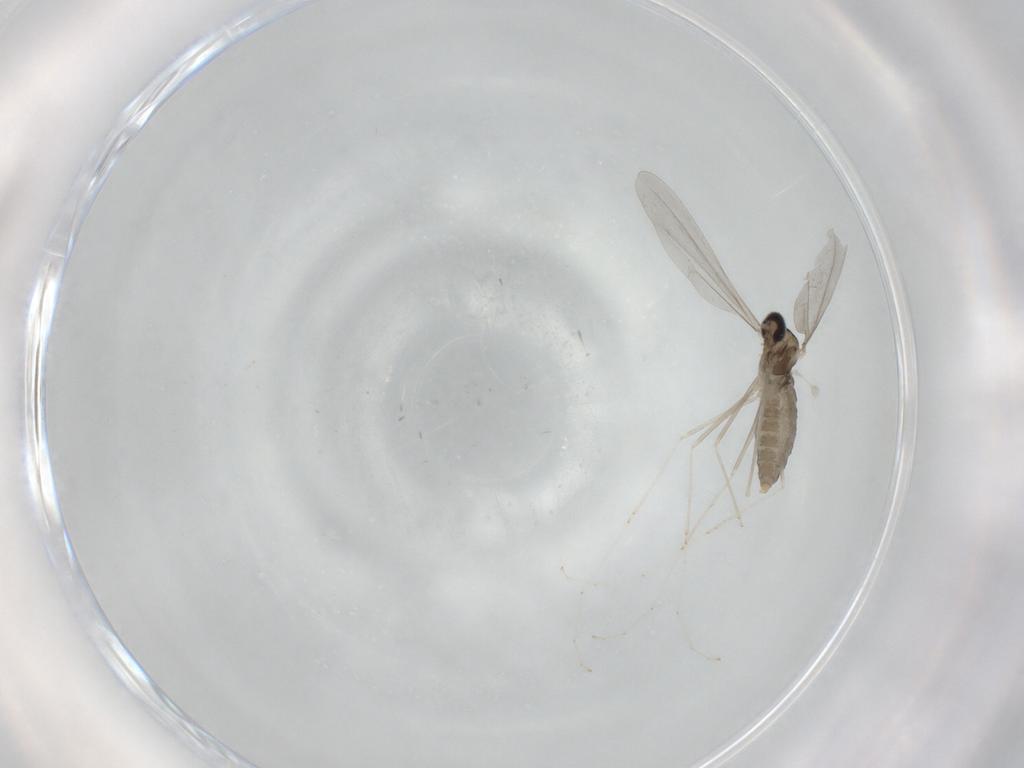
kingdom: Animalia
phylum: Arthropoda
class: Insecta
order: Diptera
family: Cecidomyiidae
